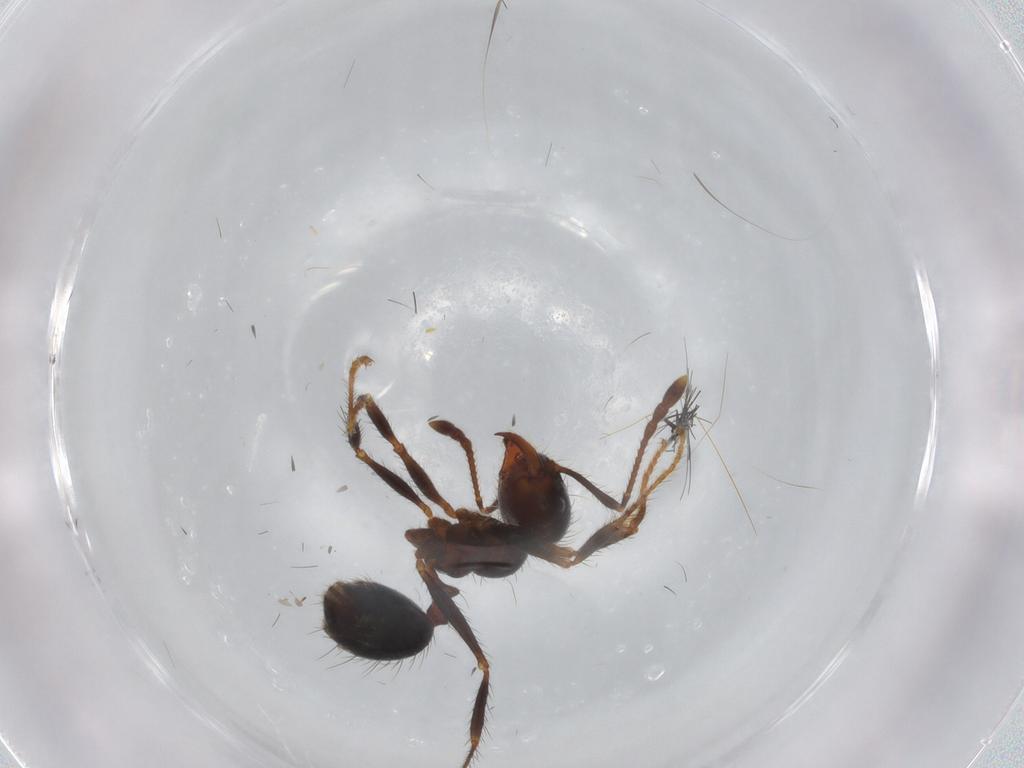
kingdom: Animalia
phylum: Arthropoda
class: Insecta
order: Hymenoptera
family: Formicidae
